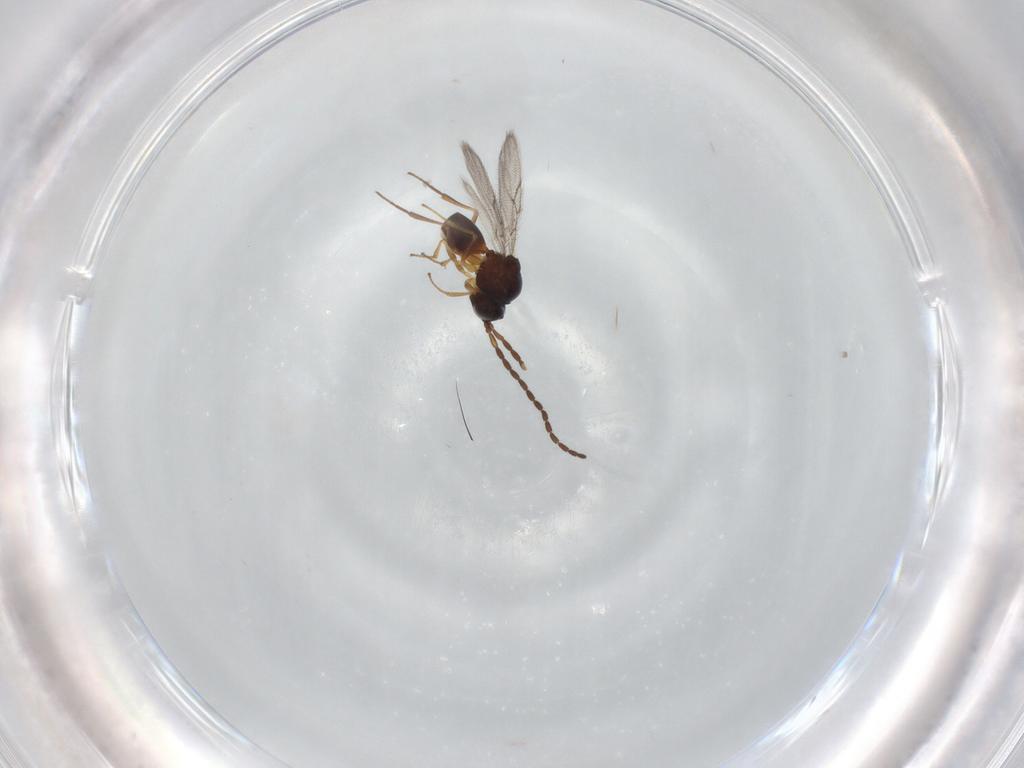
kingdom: Animalia
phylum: Arthropoda
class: Insecta
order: Hymenoptera
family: Figitidae
